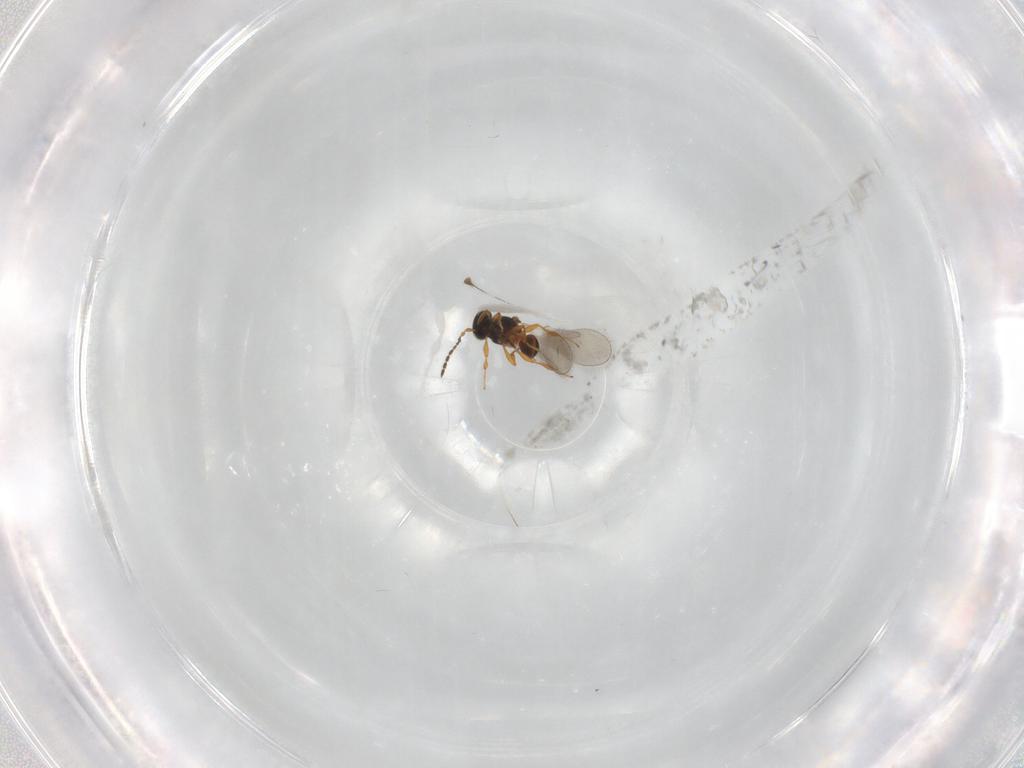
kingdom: Animalia
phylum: Arthropoda
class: Insecta
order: Hymenoptera
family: Platygastridae
